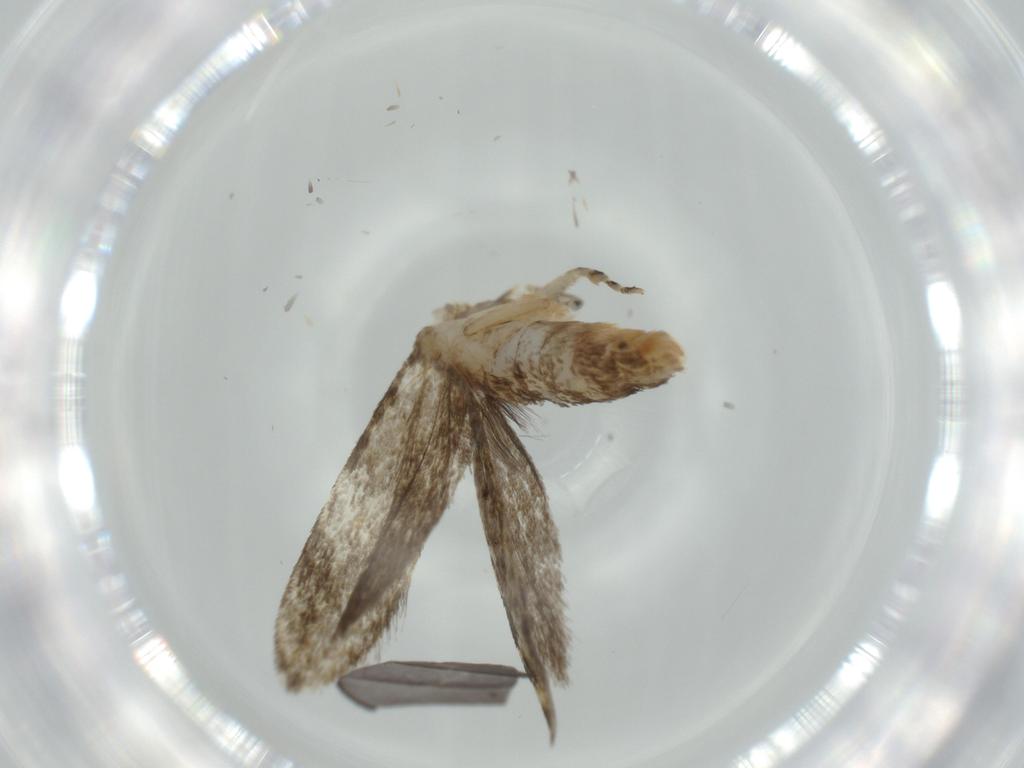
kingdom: Animalia
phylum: Arthropoda
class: Insecta
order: Lepidoptera
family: Tineidae
